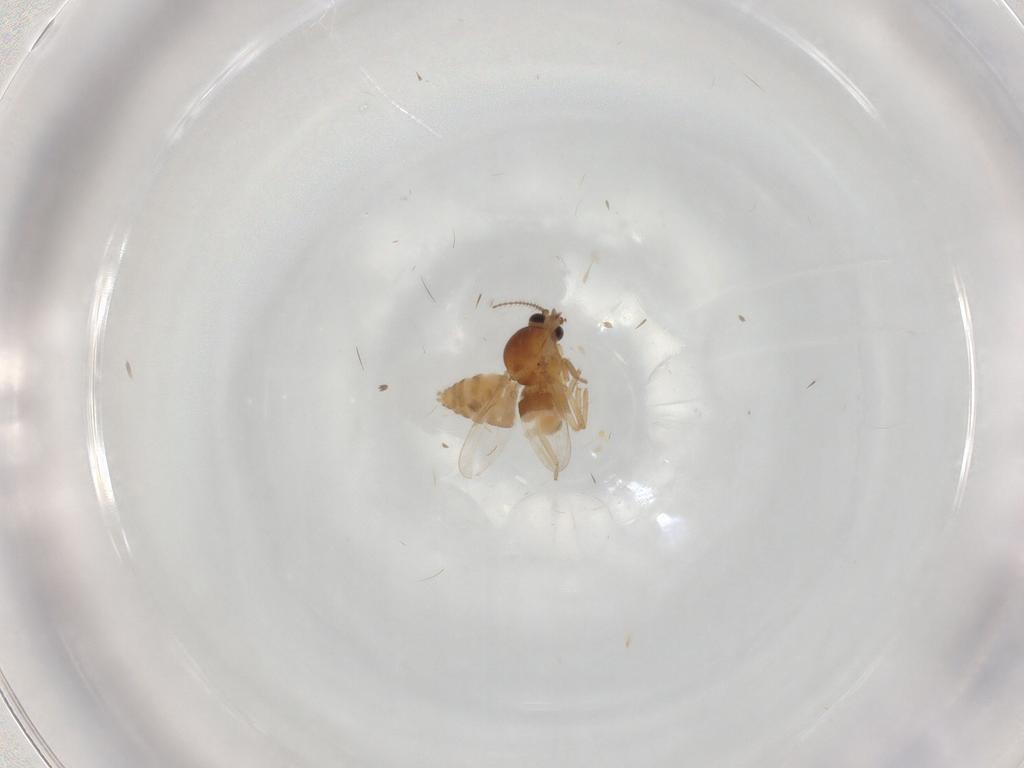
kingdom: Animalia
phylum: Arthropoda
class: Insecta
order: Diptera
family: Ceratopogonidae
